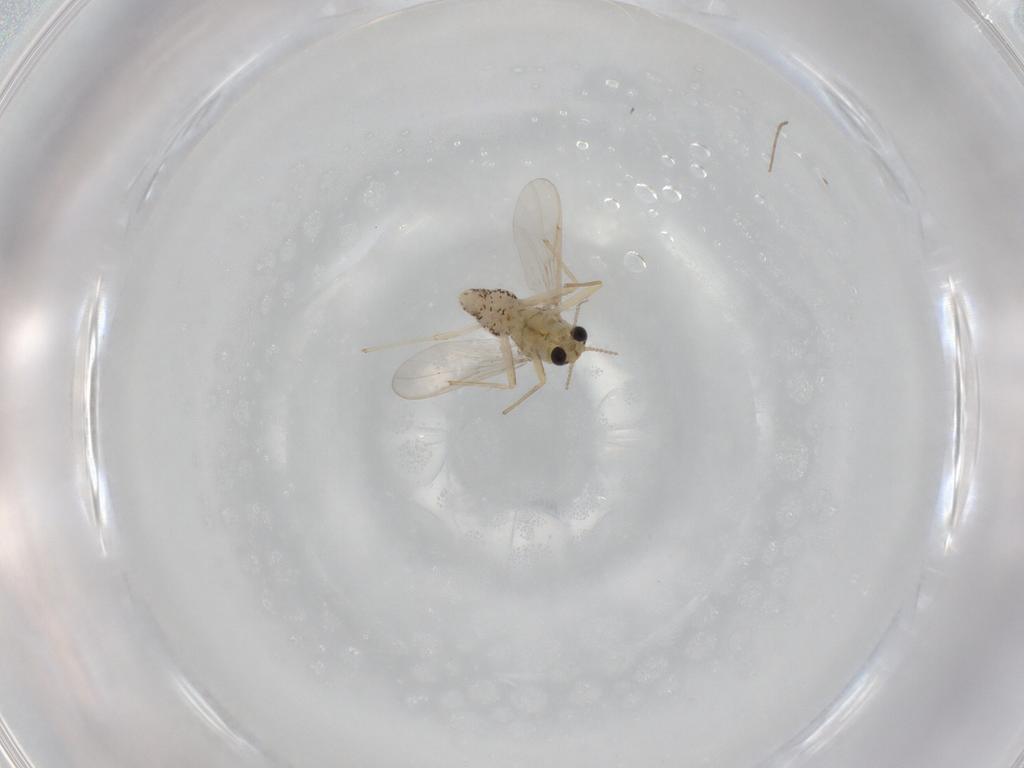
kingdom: Animalia
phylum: Arthropoda
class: Insecta
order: Diptera
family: Chironomidae
